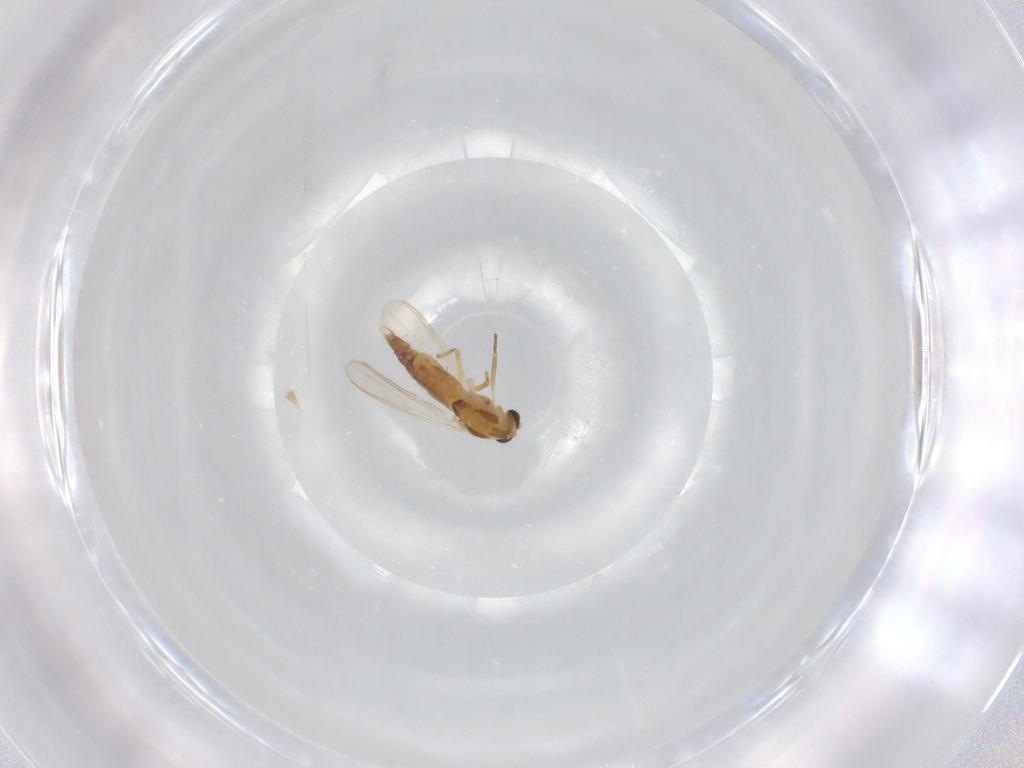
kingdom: Animalia
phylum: Arthropoda
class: Insecta
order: Diptera
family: Chironomidae
